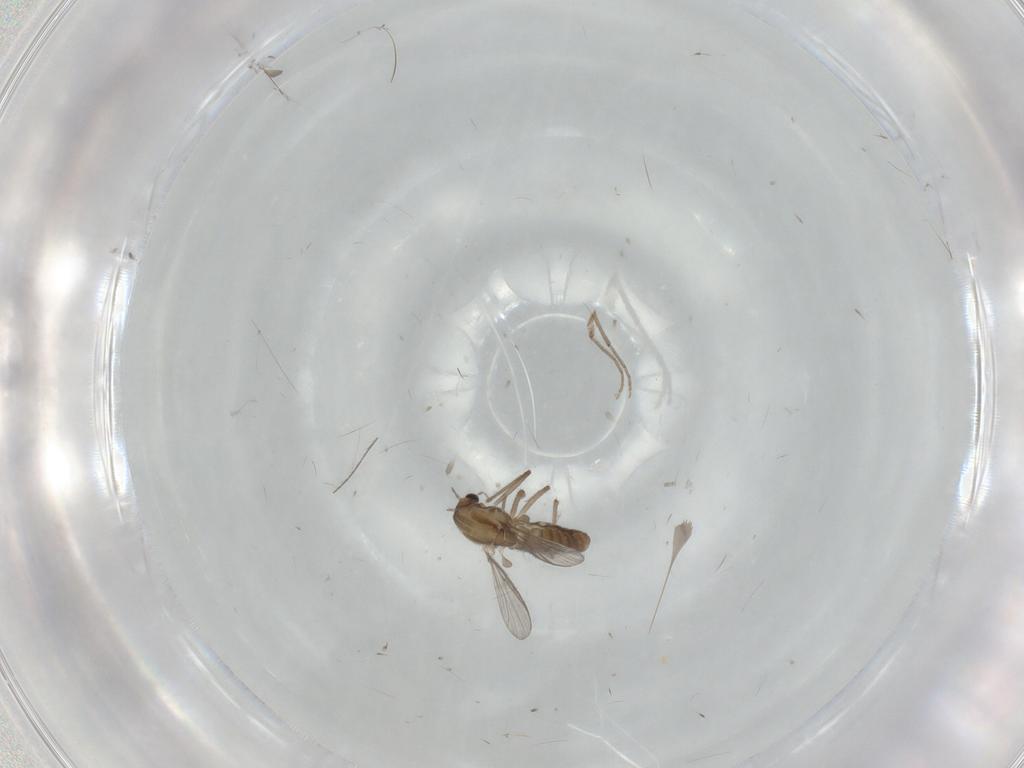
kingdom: Animalia
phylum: Arthropoda
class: Insecta
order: Diptera
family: Chironomidae
